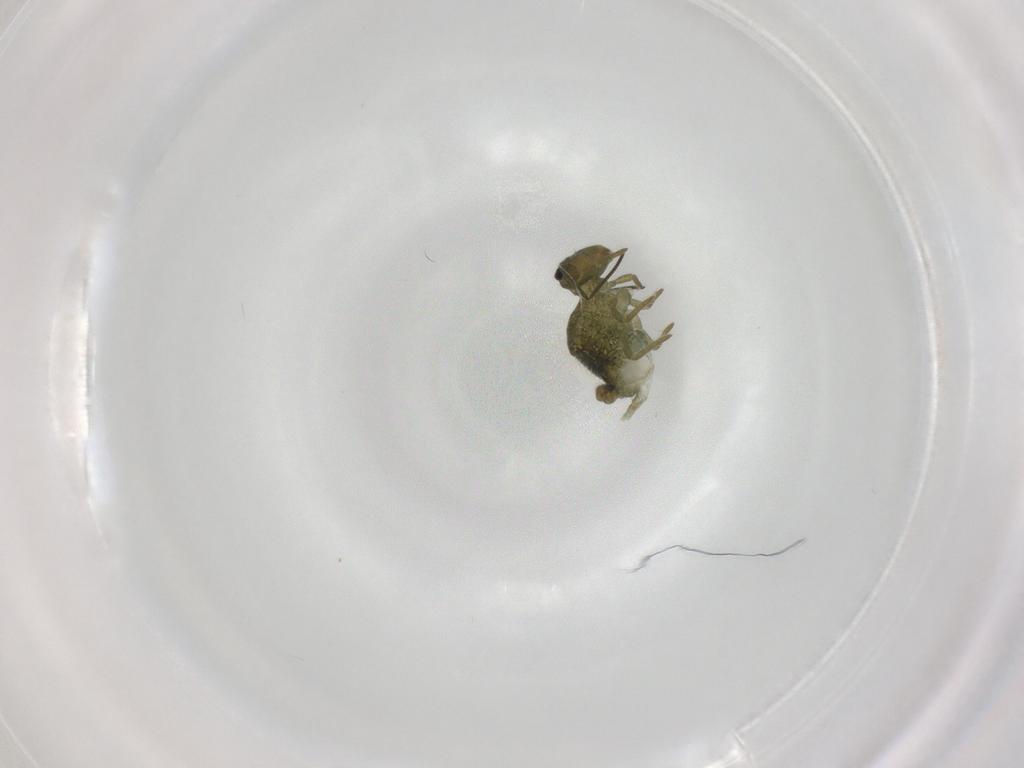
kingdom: Animalia
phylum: Arthropoda
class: Collembola
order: Symphypleona
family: Sminthuridae
